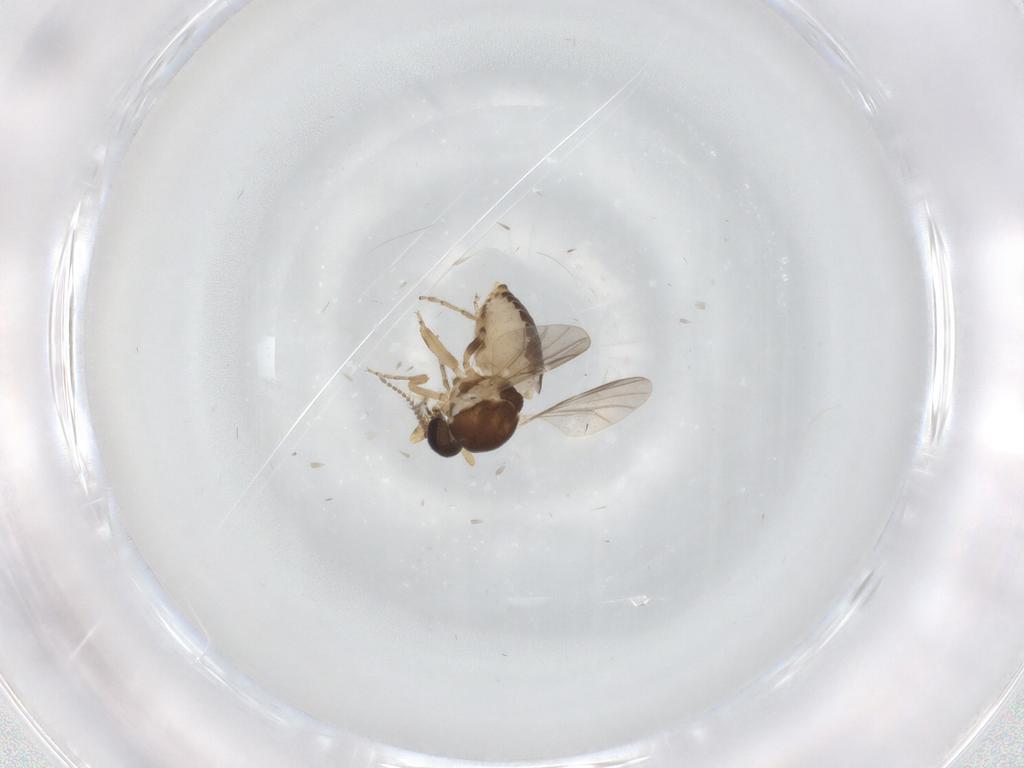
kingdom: Animalia
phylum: Arthropoda
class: Insecta
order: Diptera
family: Ceratopogonidae
